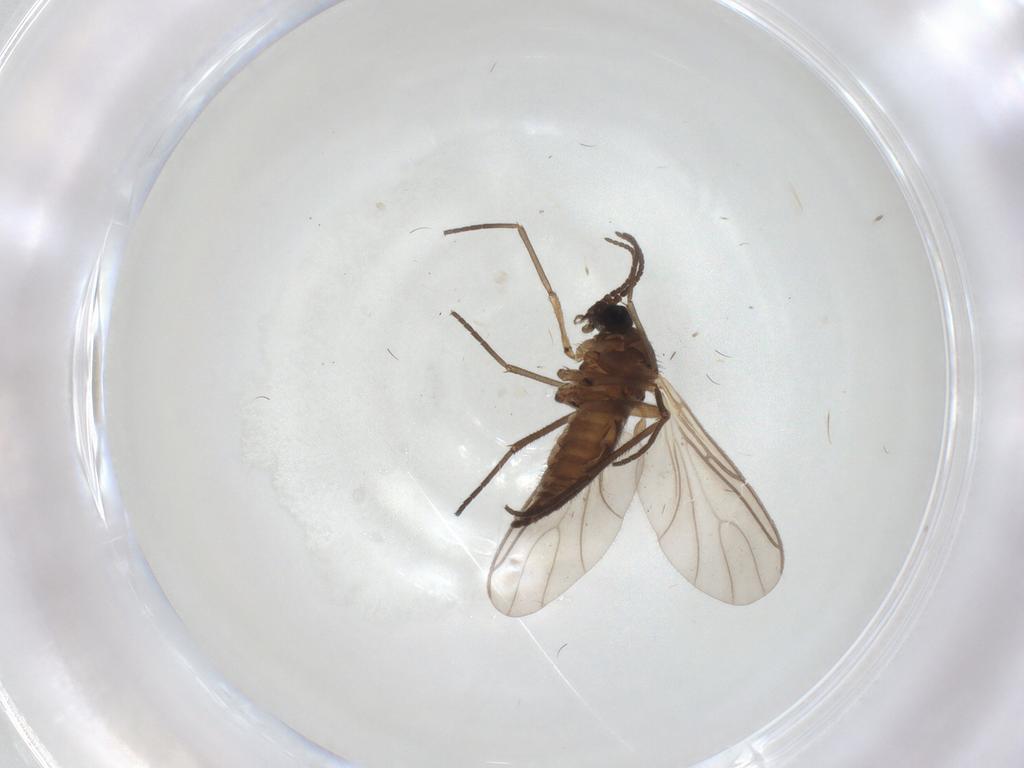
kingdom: Animalia
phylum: Arthropoda
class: Insecta
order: Diptera
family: Sciaridae
